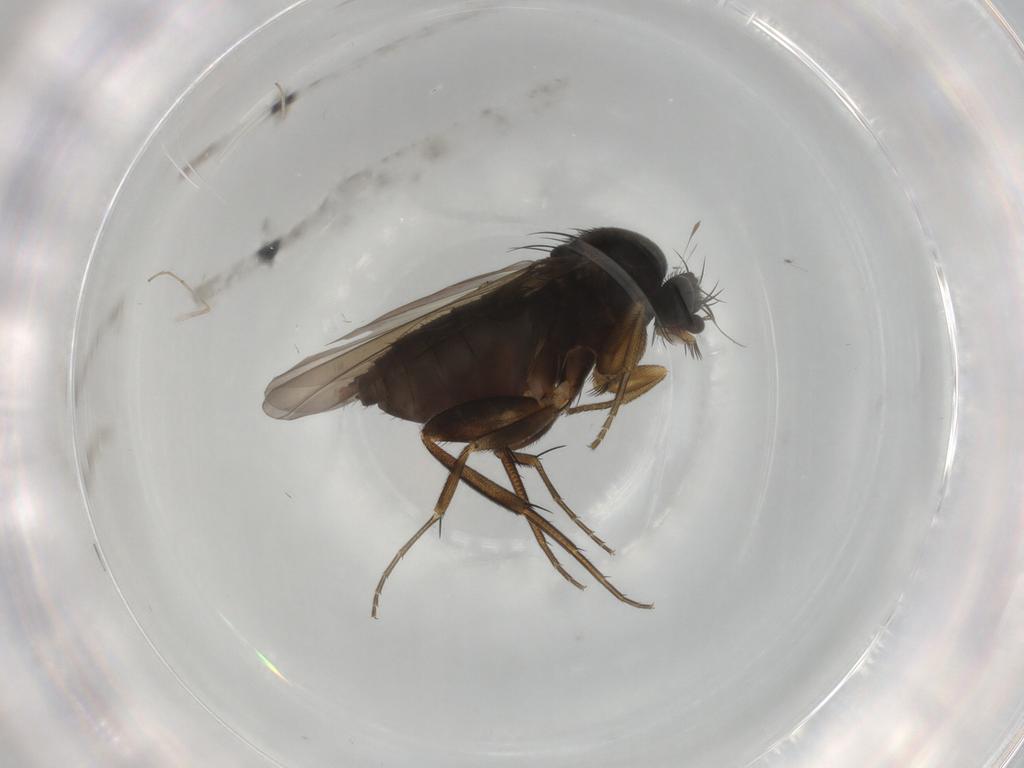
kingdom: Animalia
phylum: Arthropoda
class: Insecta
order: Diptera
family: Phoridae
